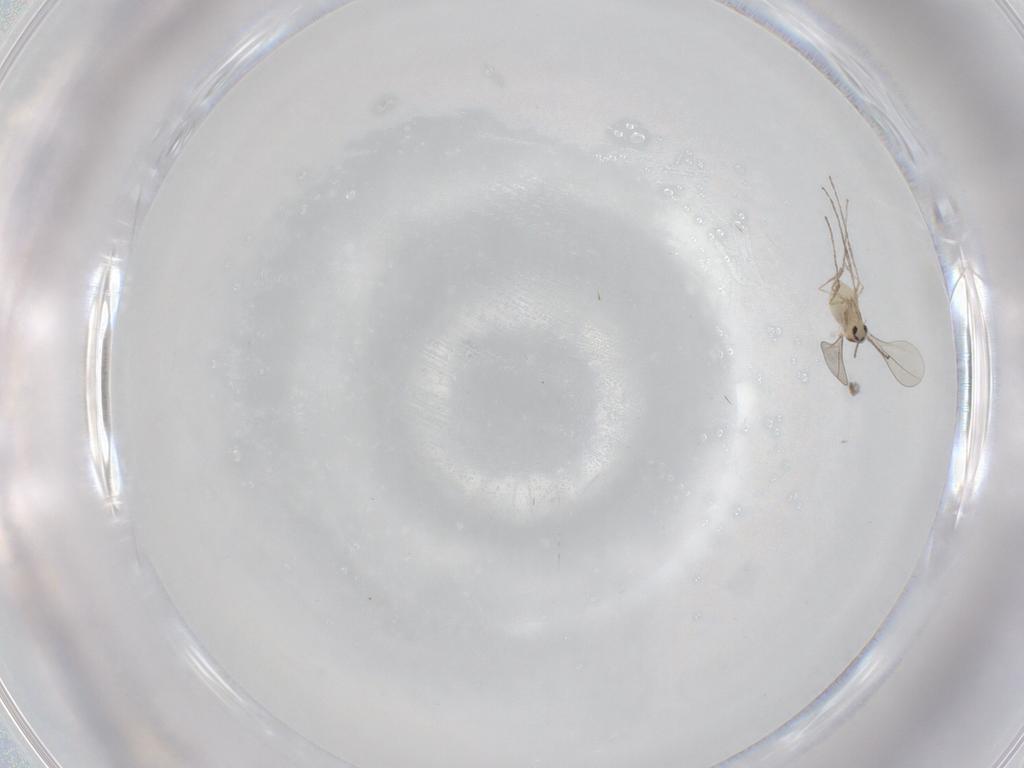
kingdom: Animalia
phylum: Arthropoda
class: Insecta
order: Diptera
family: Cecidomyiidae
